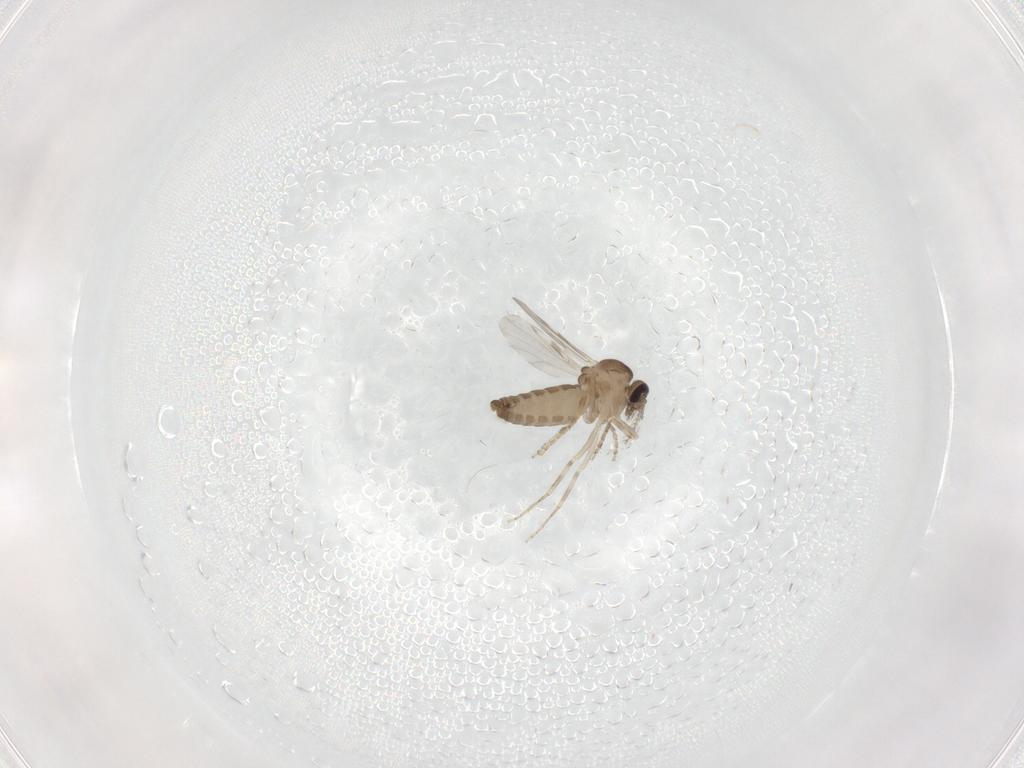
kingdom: Animalia
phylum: Arthropoda
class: Insecta
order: Diptera
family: Ceratopogonidae
